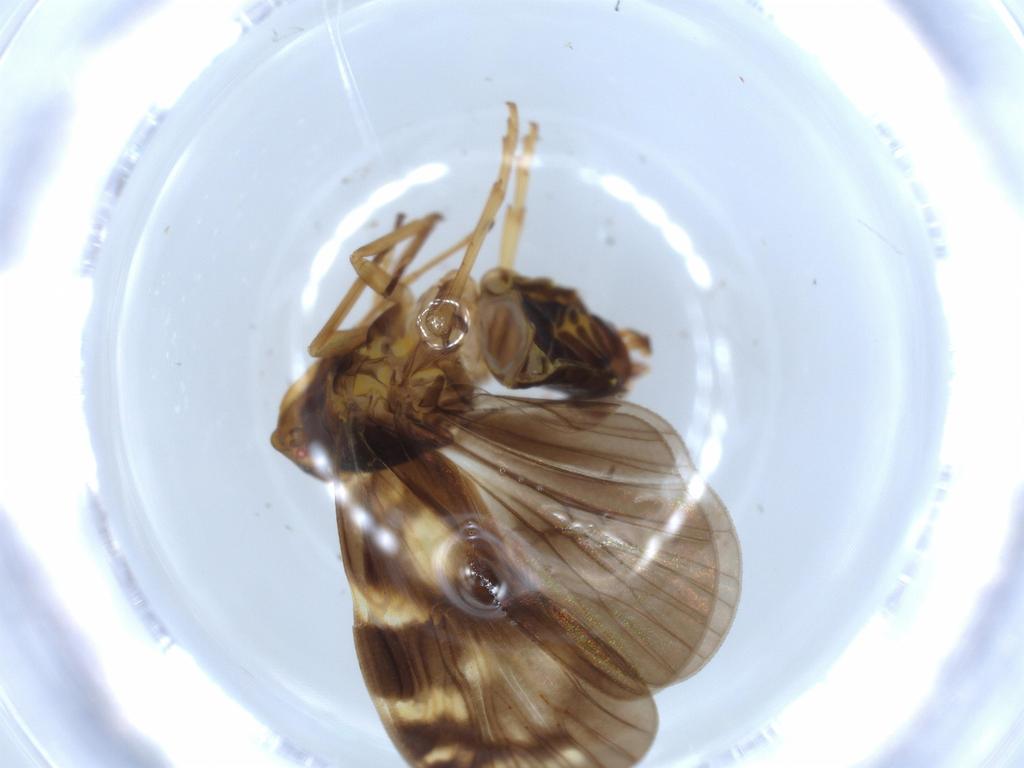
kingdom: Animalia
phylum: Arthropoda
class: Insecta
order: Hemiptera
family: Cixiidae
